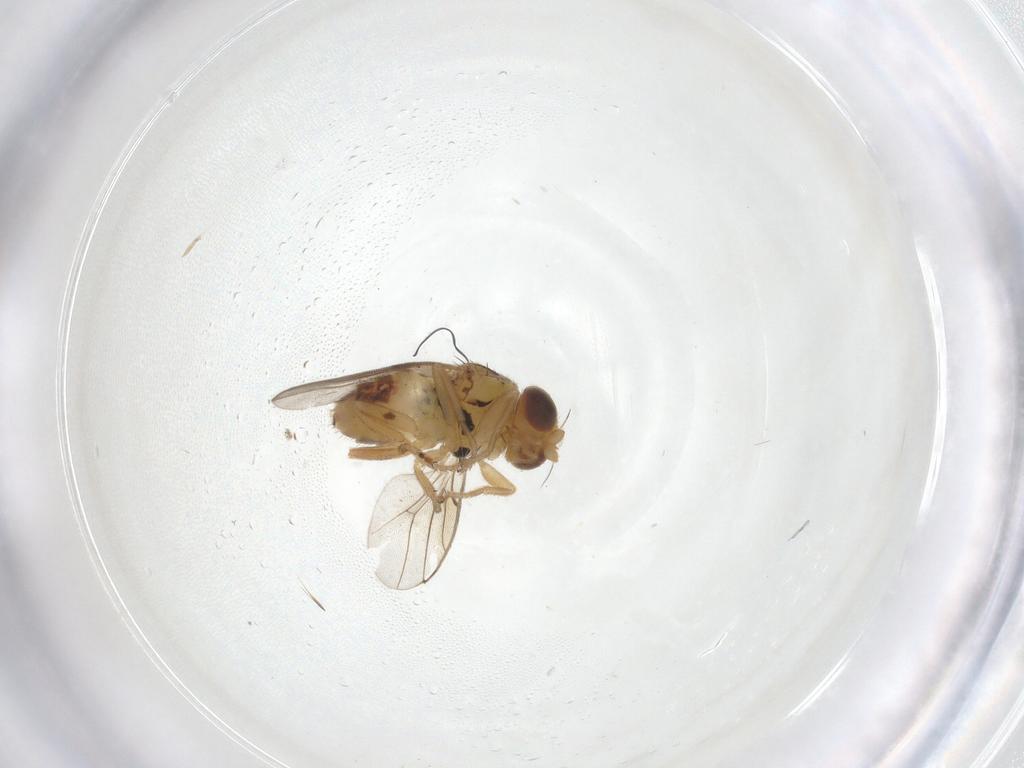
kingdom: Animalia
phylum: Arthropoda
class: Insecta
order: Diptera
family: Chloropidae
